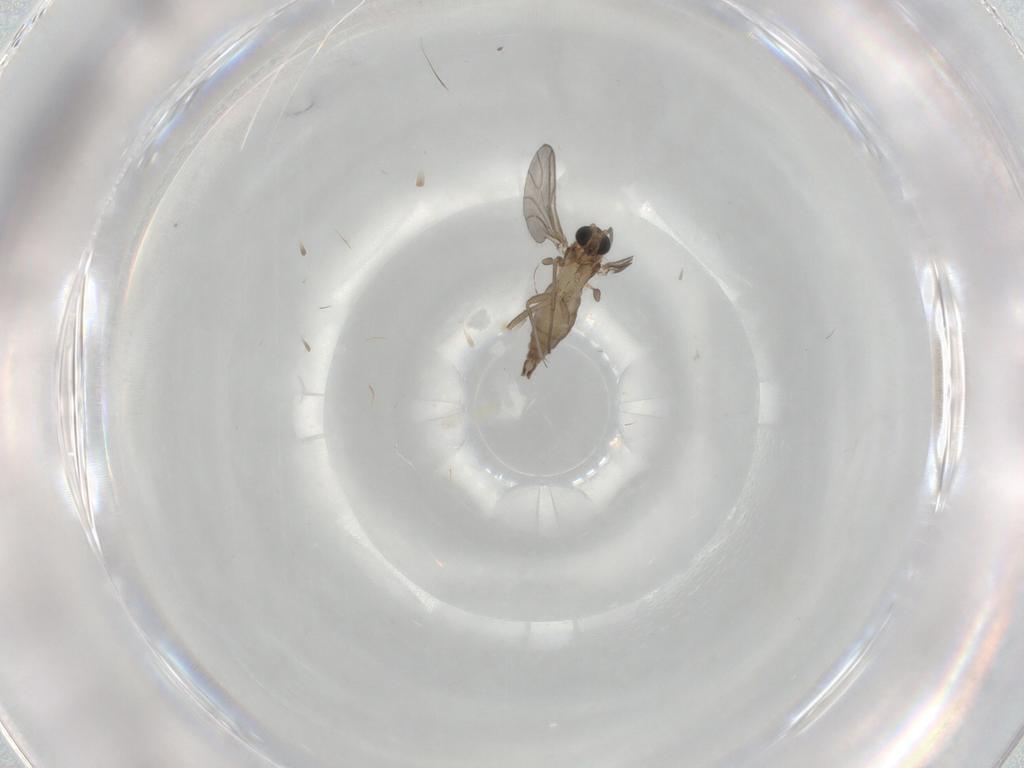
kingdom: Animalia
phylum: Arthropoda
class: Insecta
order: Diptera
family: Sciaridae
